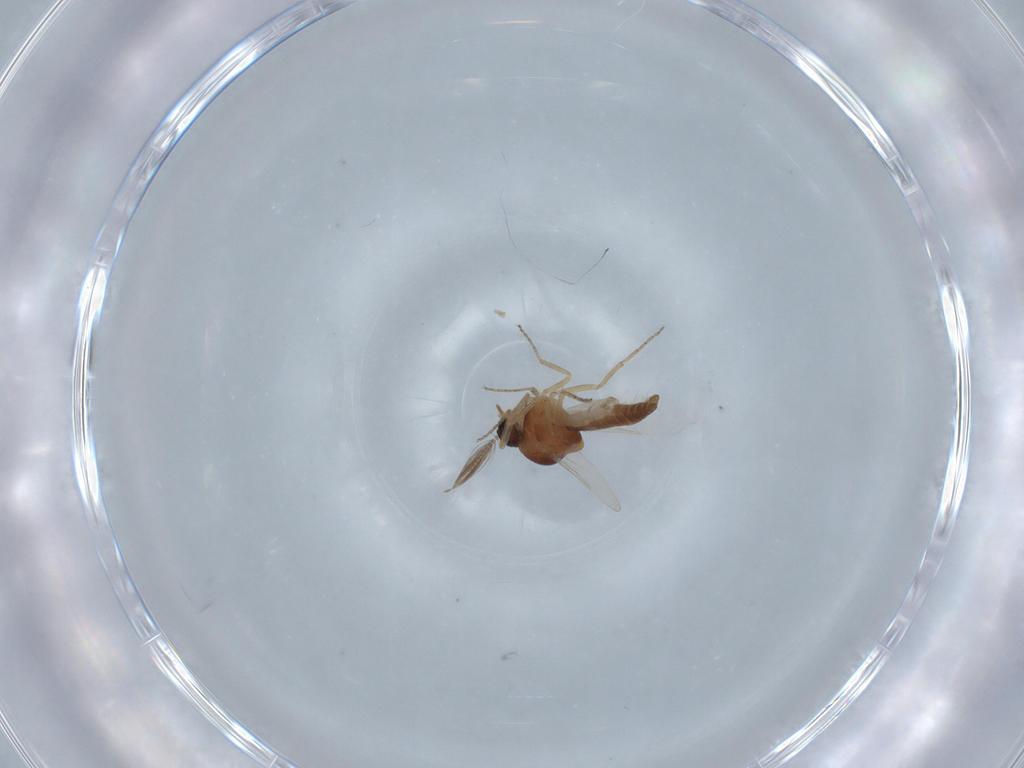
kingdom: Animalia
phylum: Arthropoda
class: Insecta
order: Diptera
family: Ceratopogonidae
